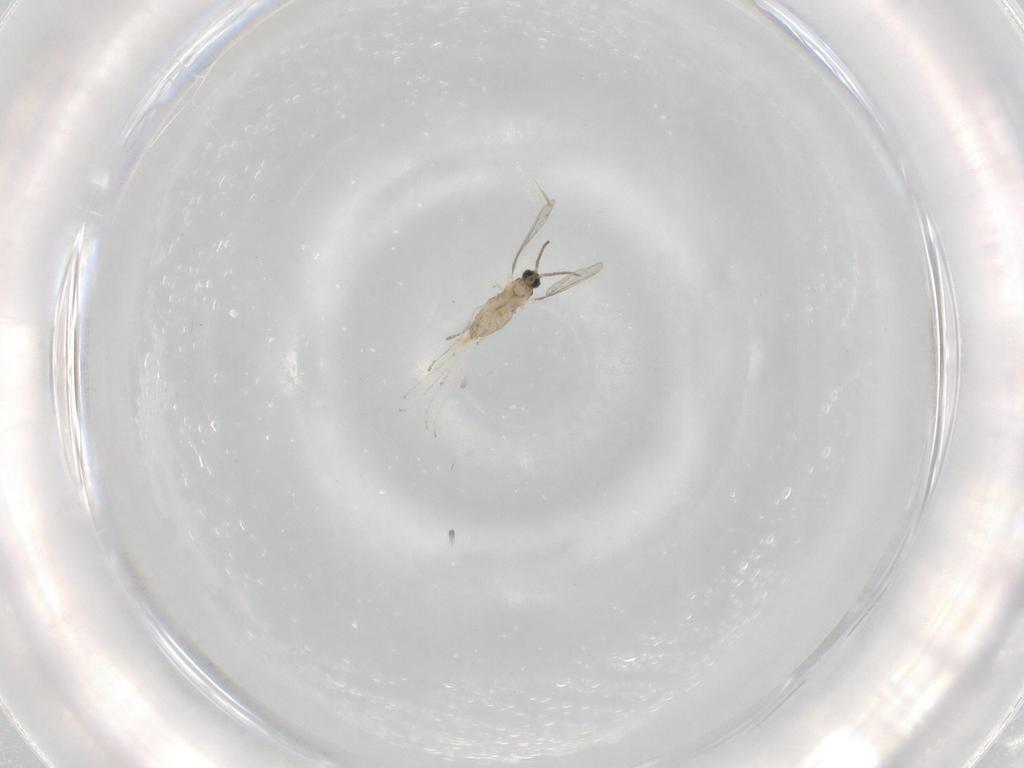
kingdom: Animalia
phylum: Arthropoda
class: Insecta
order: Diptera
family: Cecidomyiidae
